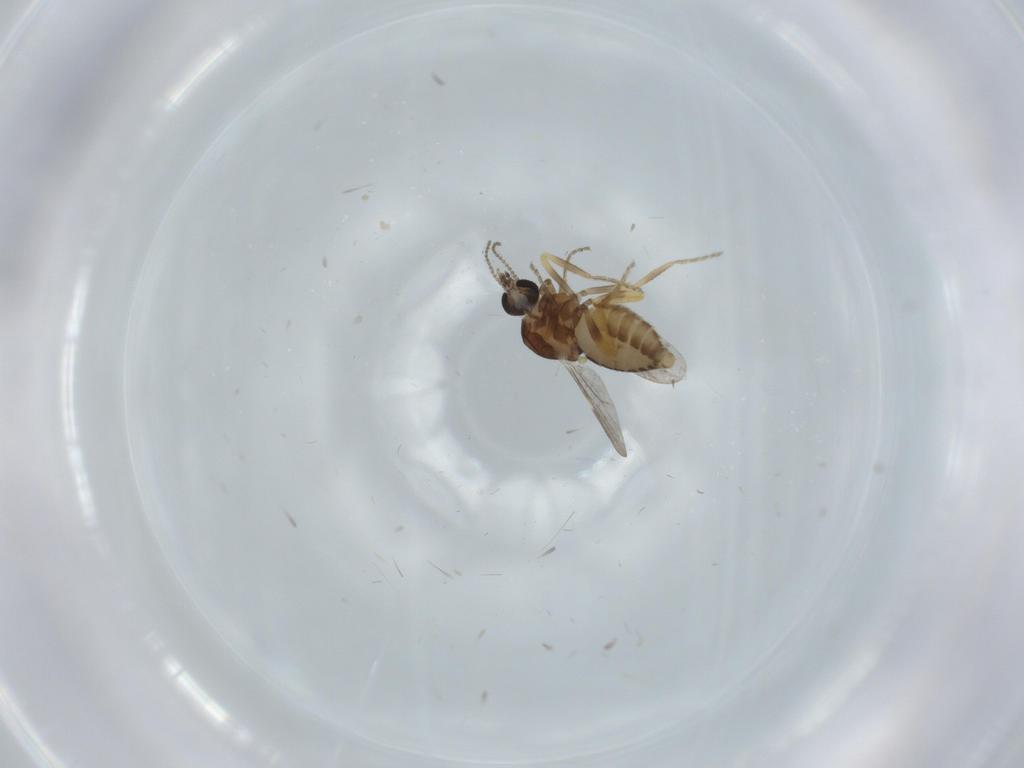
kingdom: Animalia
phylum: Arthropoda
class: Insecta
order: Diptera
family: Ceratopogonidae
